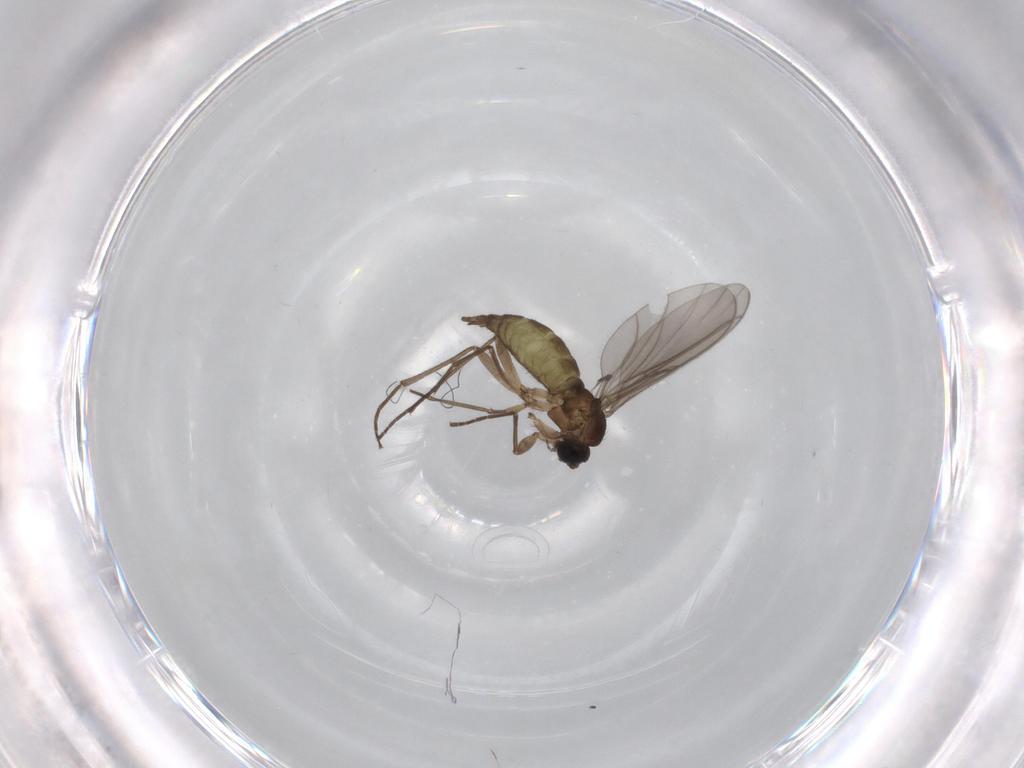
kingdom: Animalia
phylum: Arthropoda
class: Insecta
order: Diptera
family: Sciaridae
